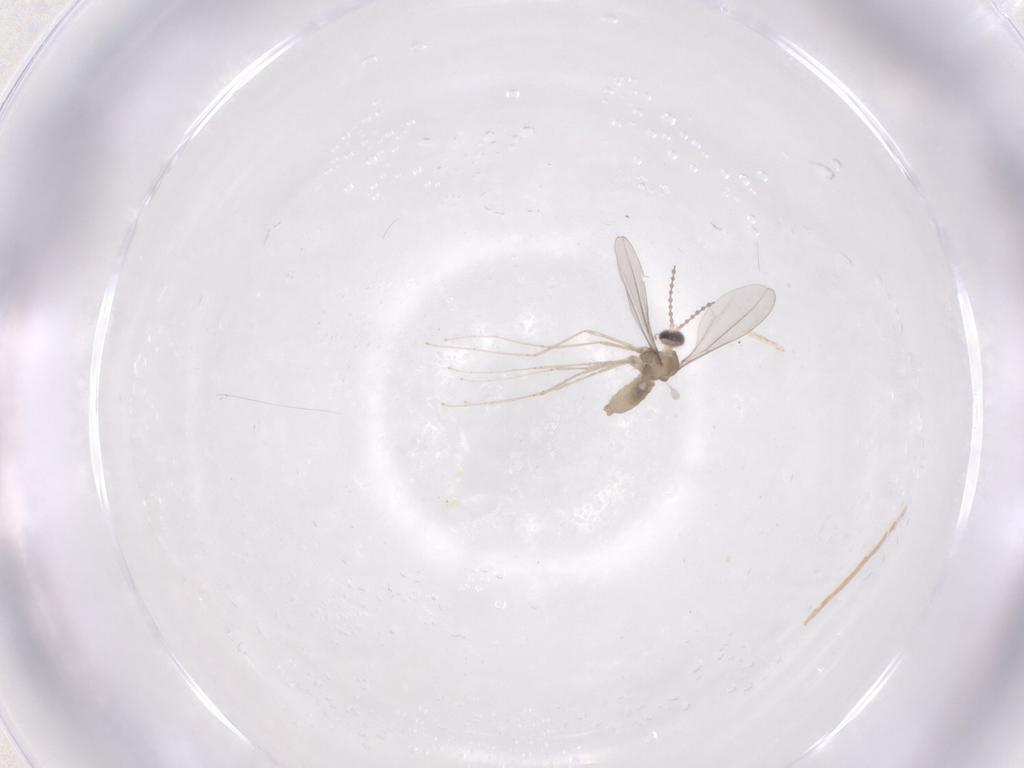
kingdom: Animalia
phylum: Arthropoda
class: Insecta
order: Diptera
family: Cecidomyiidae
